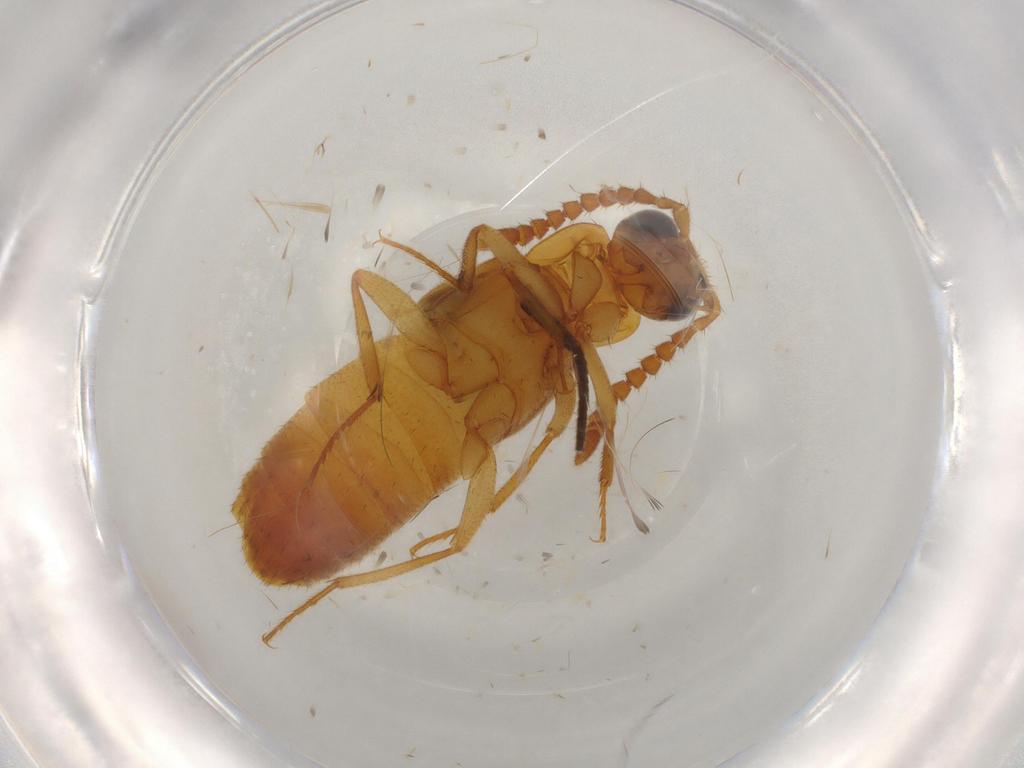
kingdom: Animalia
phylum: Arthropoda
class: Insecta
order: Coleoptera
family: Staphylinidae
